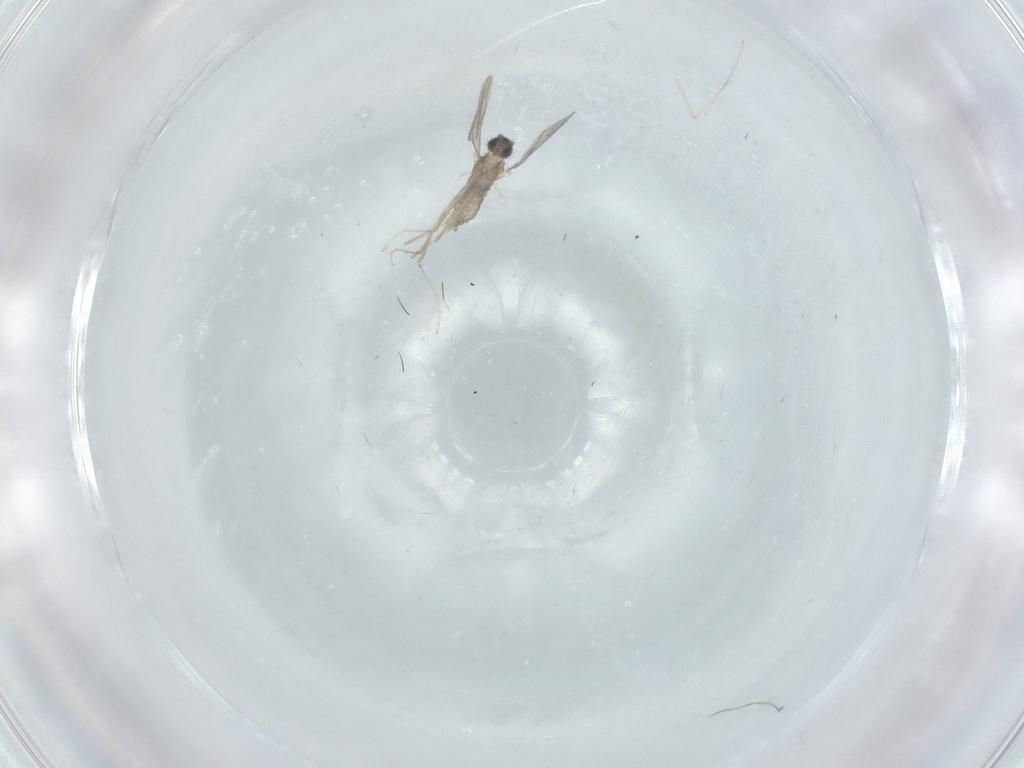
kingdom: Animalia
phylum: Arthropoda
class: Insecta
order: Diptera
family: Cecidomyiidae
